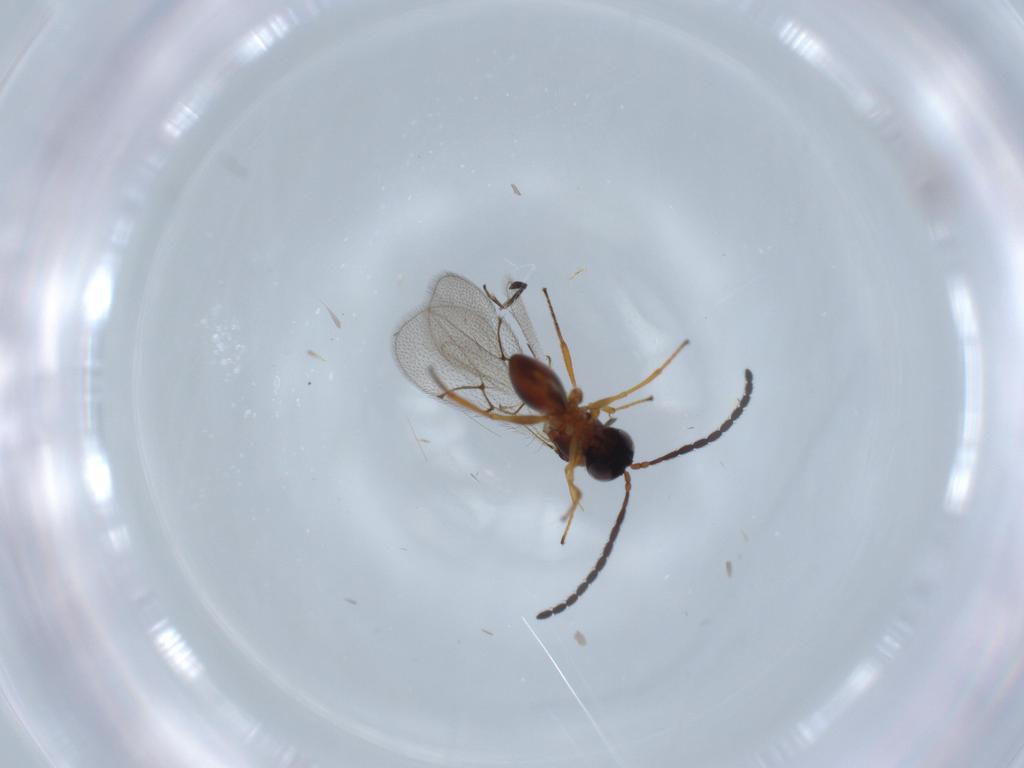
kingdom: Animalia
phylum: Arthropoda
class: Insecta
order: Hymenoptera
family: Figitidae
